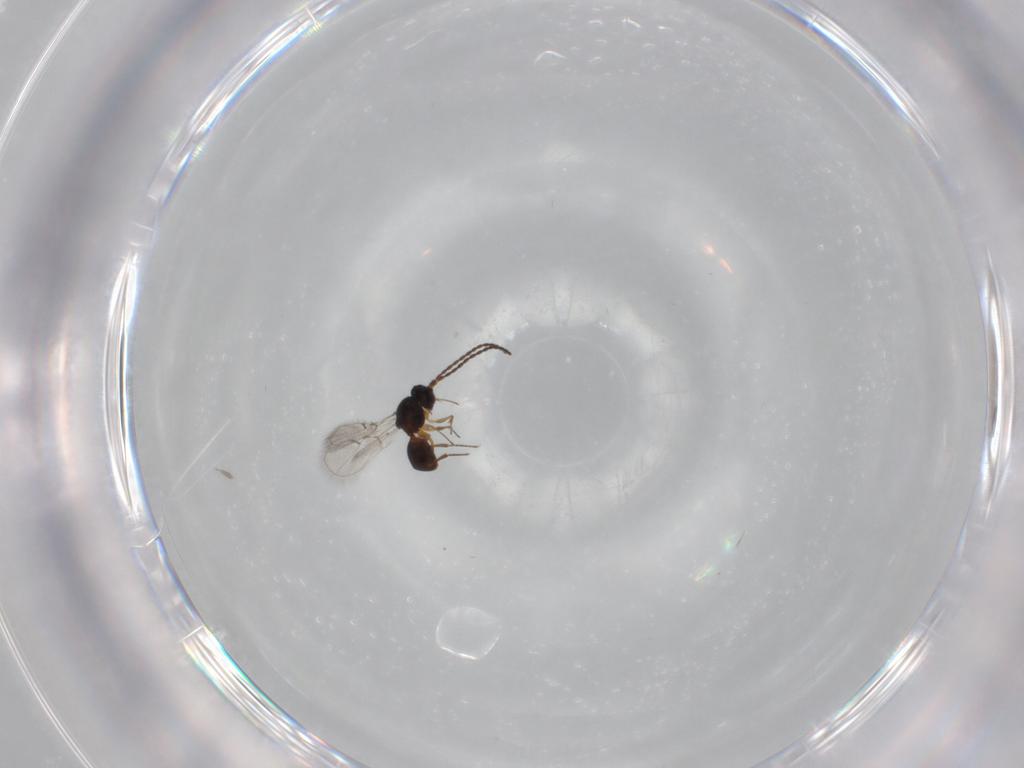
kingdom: Animalia
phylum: Arthropoda
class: Insecta
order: Hymenoptera
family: Figitidae
